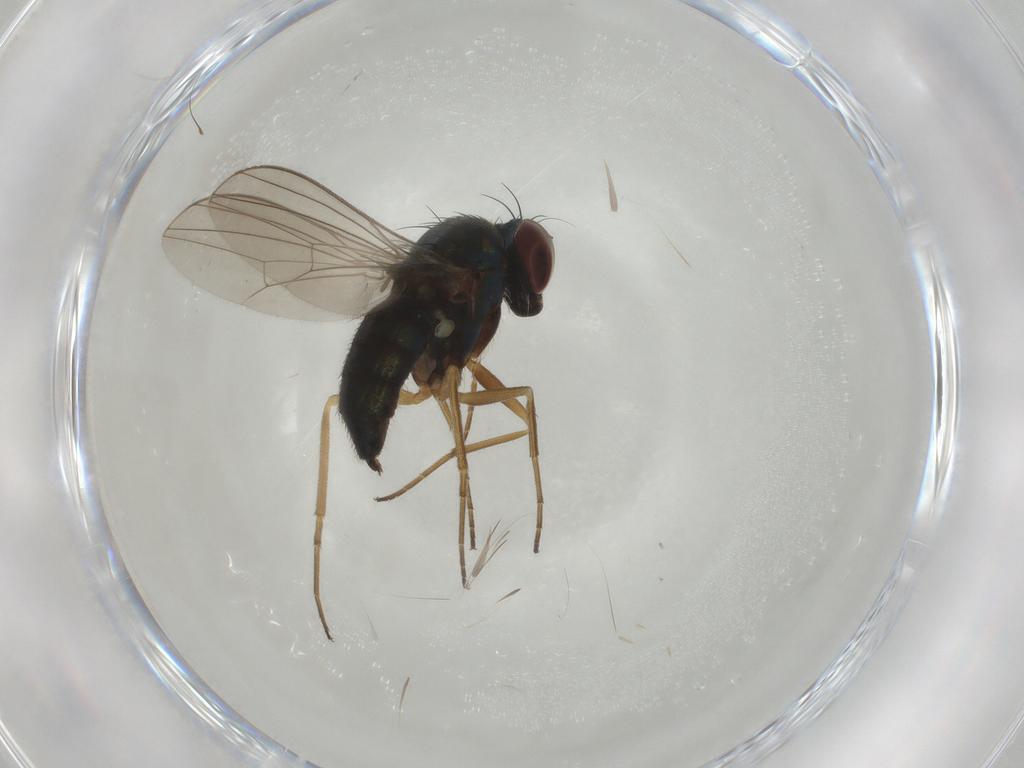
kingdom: Animalia
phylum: Arthropoda
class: Insecta
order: Diptera
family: Dolichopodidae
